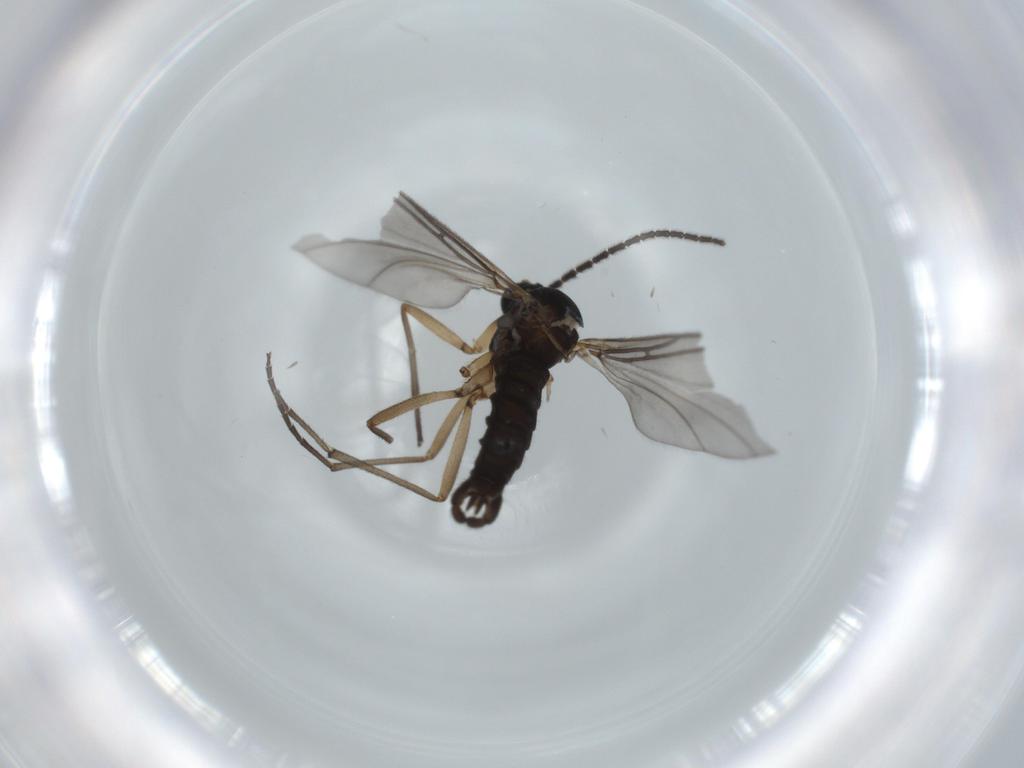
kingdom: Animalia
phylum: Arthropoda
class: Insecta
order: Diptera
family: Sciaridae
